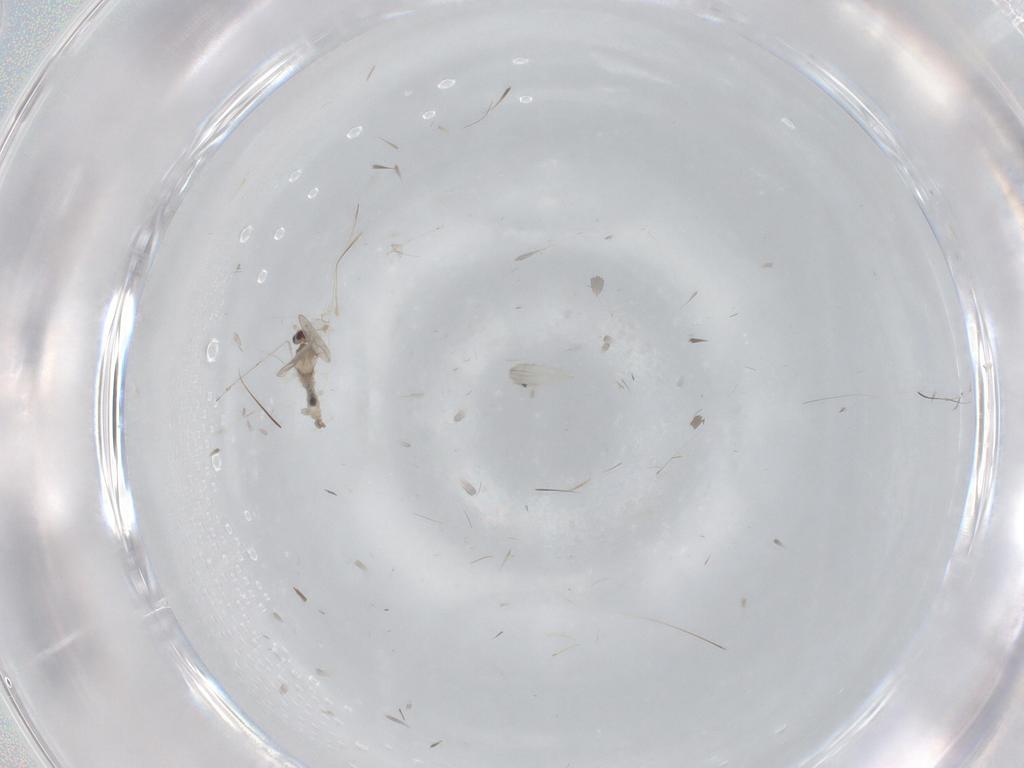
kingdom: Animalia
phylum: Arthropoda
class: Insecta
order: Diptera
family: Cecidomyiidae
